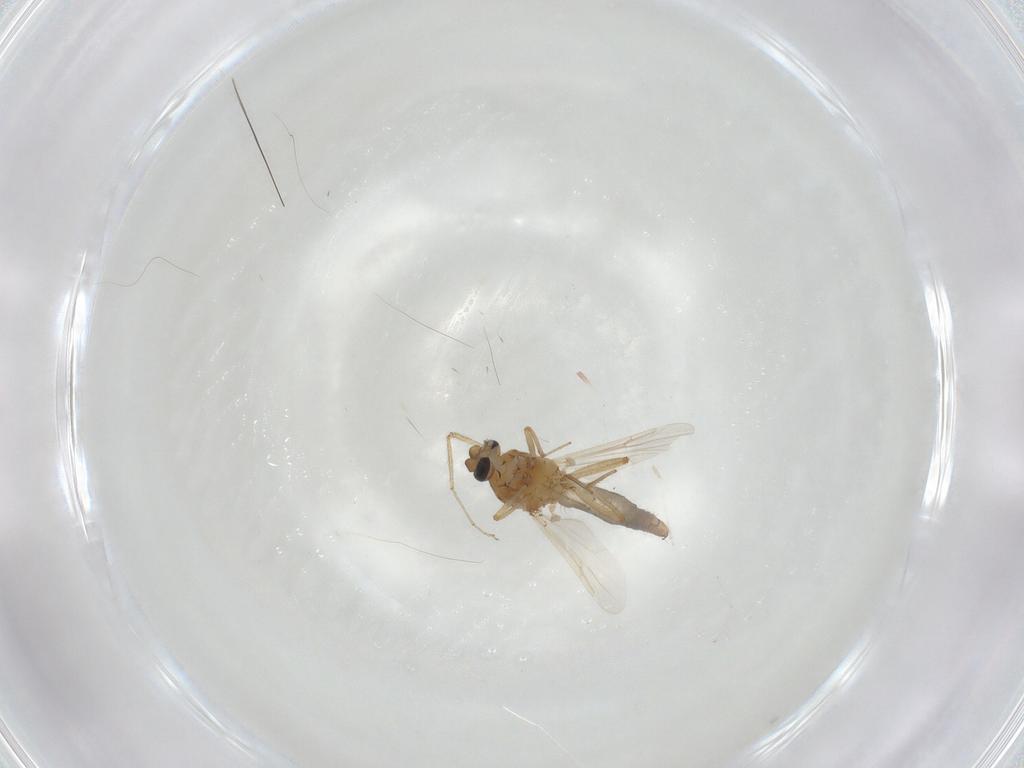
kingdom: Animalia
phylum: Arthropoda
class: Insecta
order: Diptera
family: Ceratopogonidae
